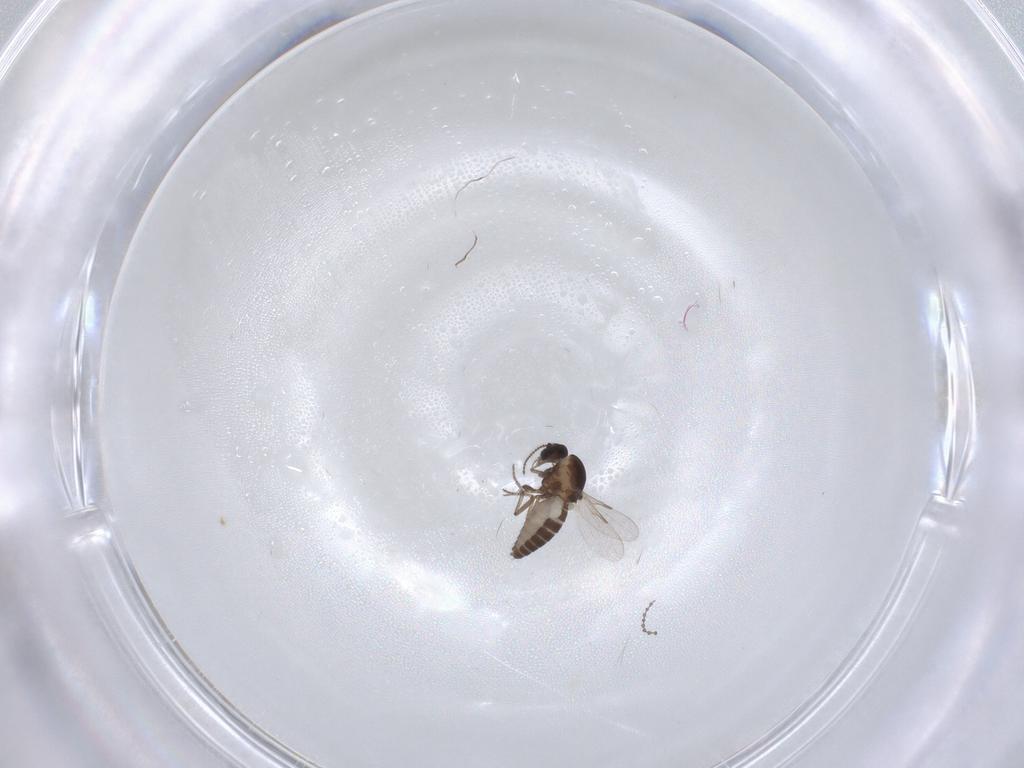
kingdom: Animalia
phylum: Arthropoda
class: Insecta
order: Diptera
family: Ceratopogonidae
